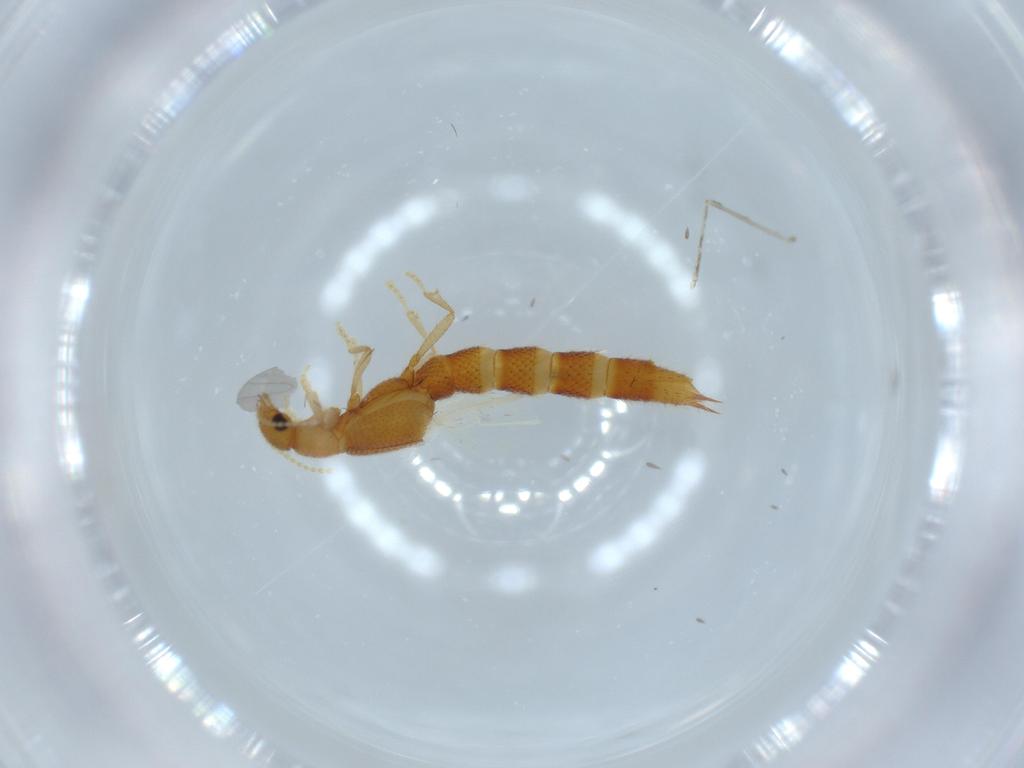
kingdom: Animalia
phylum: Arthropoda
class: Insecta
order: Coleoptera
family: Staphylinidae
